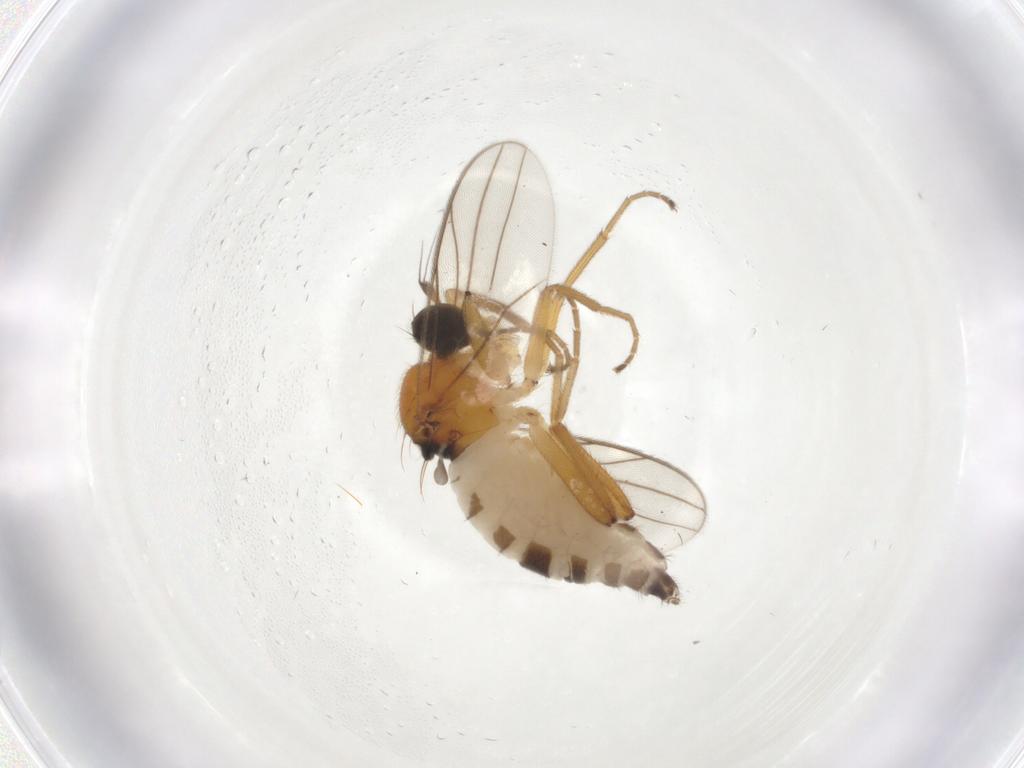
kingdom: Animalia
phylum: Arthropoda
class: Insecta
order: Diptera
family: Hybotidae
